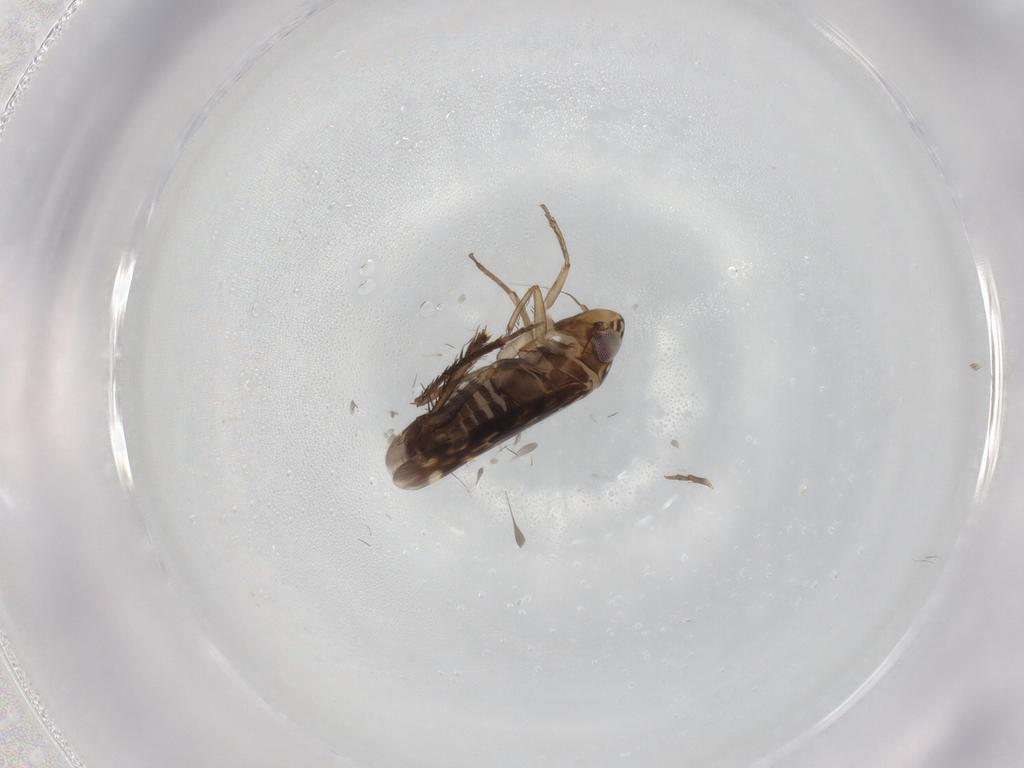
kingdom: Animalia
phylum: Arthropoda
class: Insecta
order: Hemiptera
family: Cicadellidae
